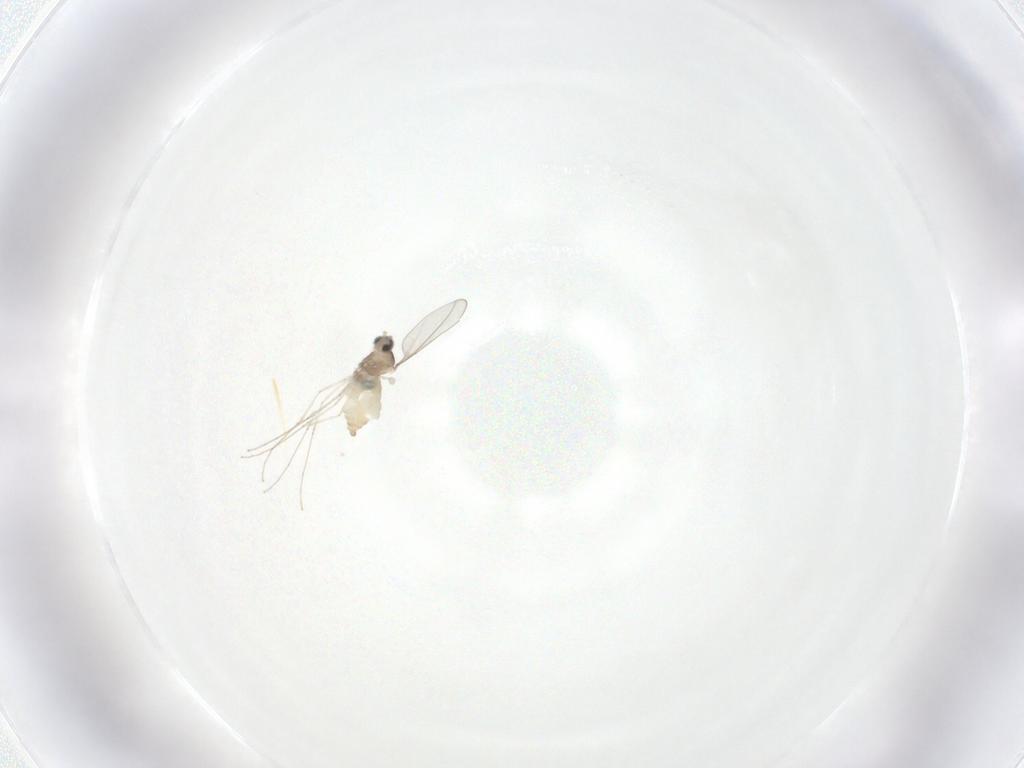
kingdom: Animalia
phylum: Arthropoda
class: Insecta
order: Diptera
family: Cecidomyiidae
